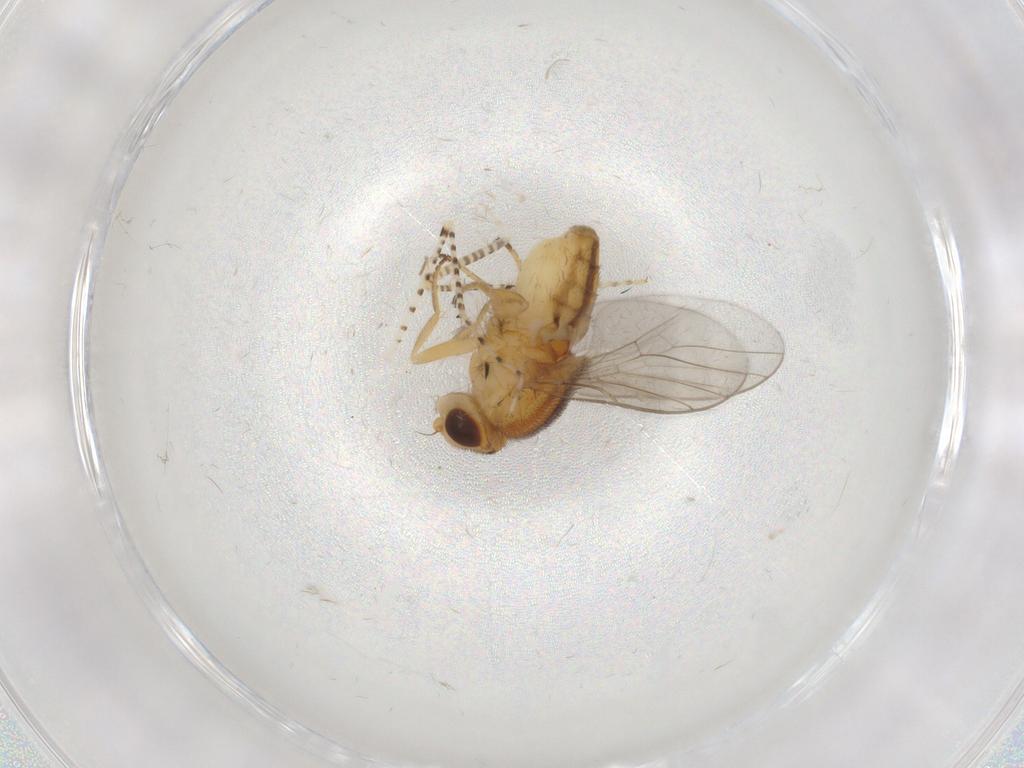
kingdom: Animalia
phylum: Arthropoda
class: Insecta
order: Diptera
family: Chloropidae
